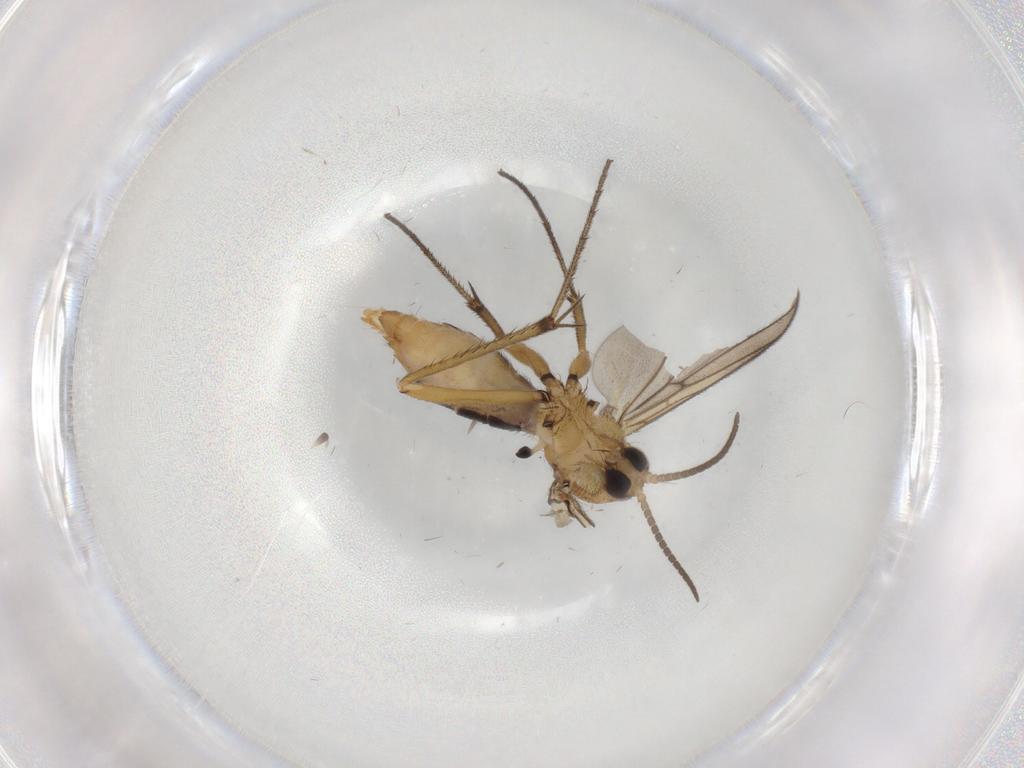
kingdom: Animalia
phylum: Arthropoda
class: Insecta
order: Diptera
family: Mycetophilidae
